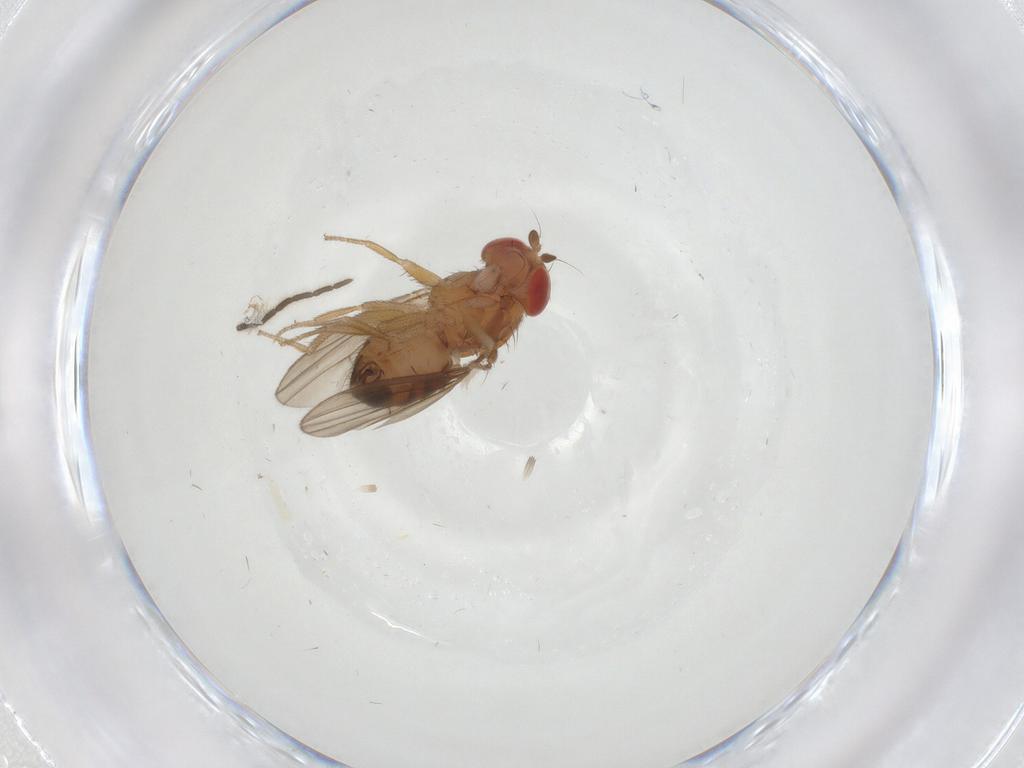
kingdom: Animalia
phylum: Arthropoda
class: Insecta
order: Diptera
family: Drosophilidae
